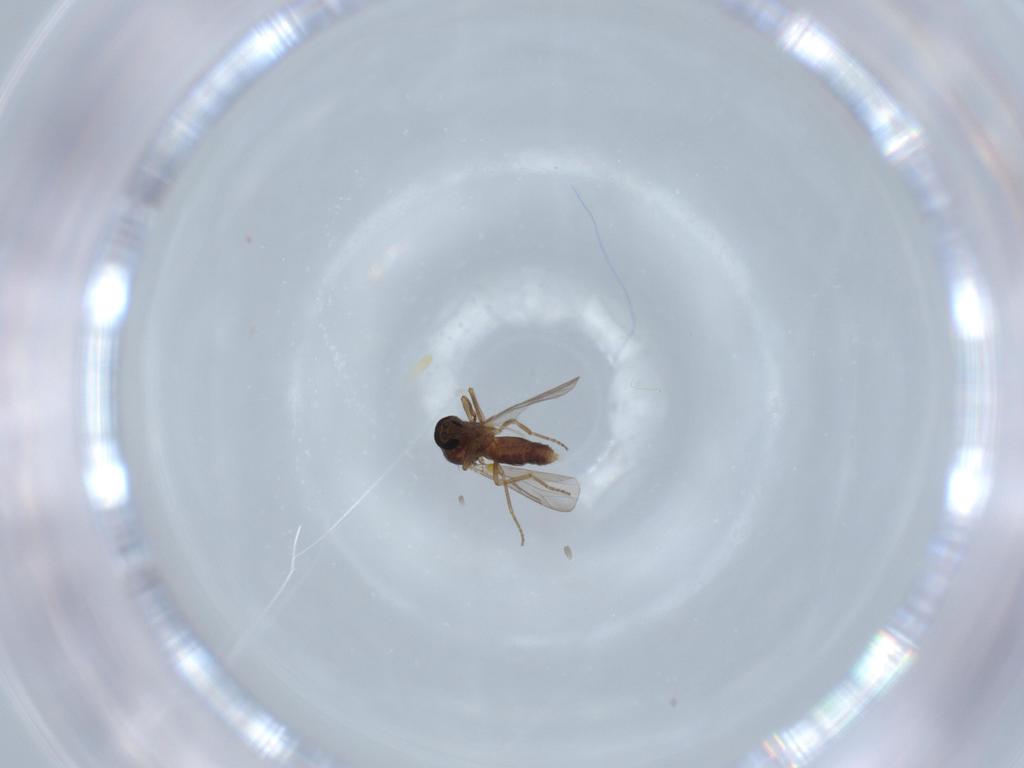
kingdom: Animalia
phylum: Arthropoda
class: Insecta
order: Diptera
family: Ceratopogonidae
